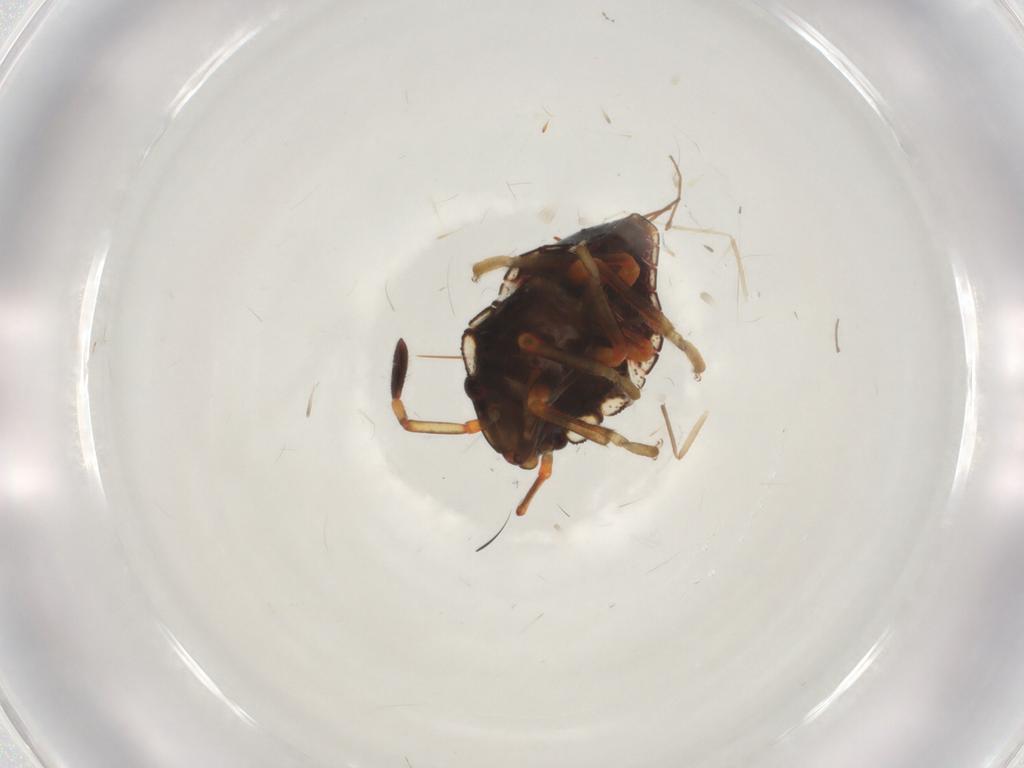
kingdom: Animalia
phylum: Arthropoda
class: Insecta
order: Hemiptera
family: Pentatomidae
